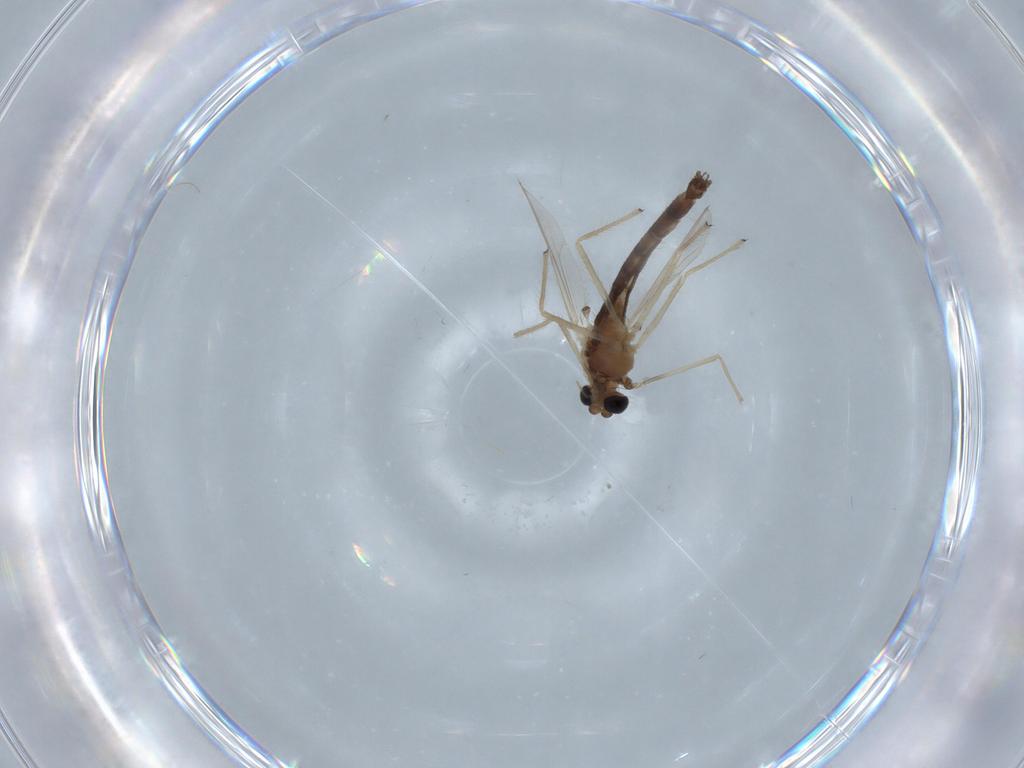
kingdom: Animalia
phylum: Arthropoda
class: Insecta
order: Diptera
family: Chironomidae
